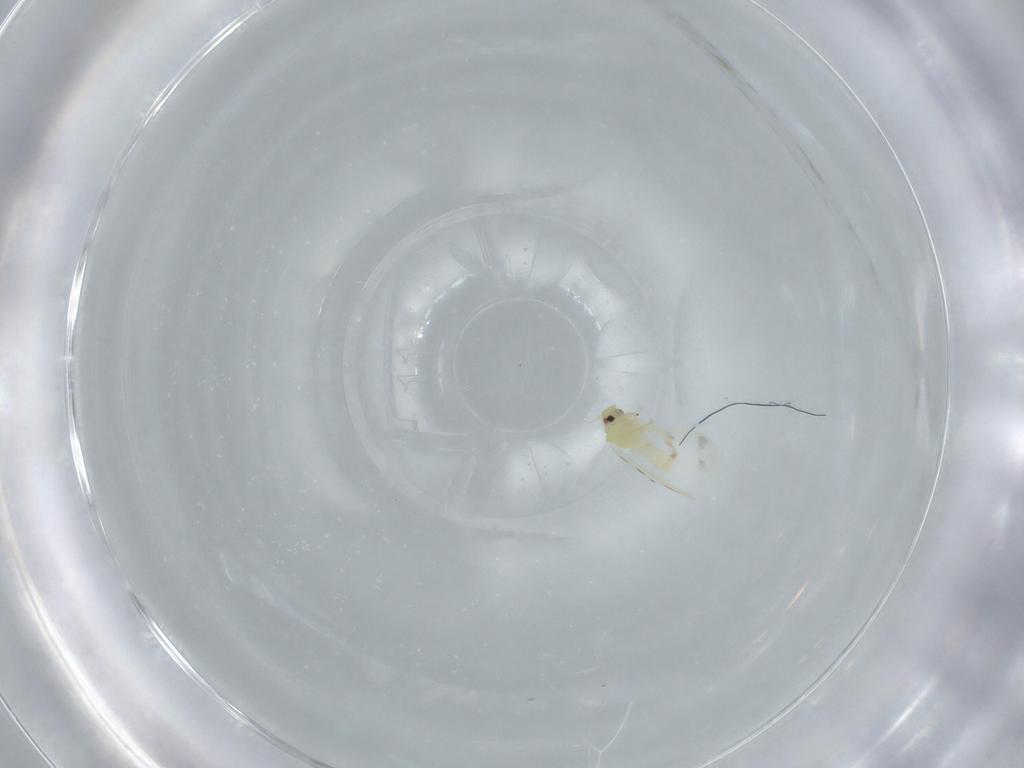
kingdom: Animalia
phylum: Arthropoda
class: Insecta
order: Hemiptera
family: Aleyrodidae
